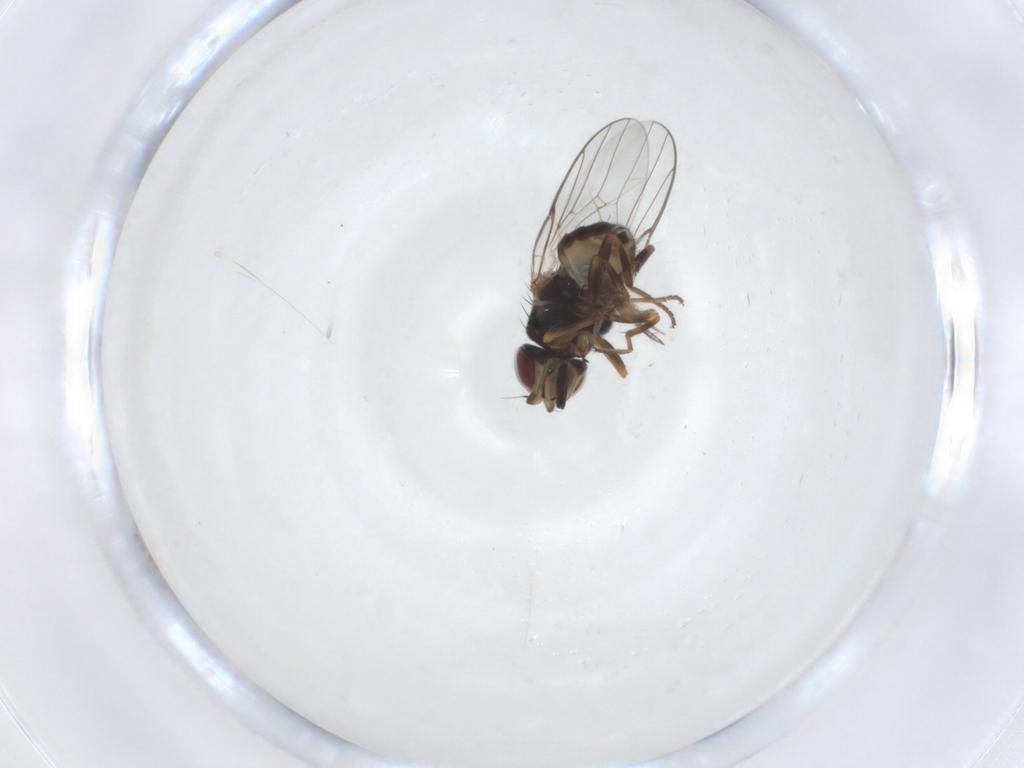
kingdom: Animalia
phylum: Arthropoda
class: Insecta
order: Diptera
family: Chloropidae
